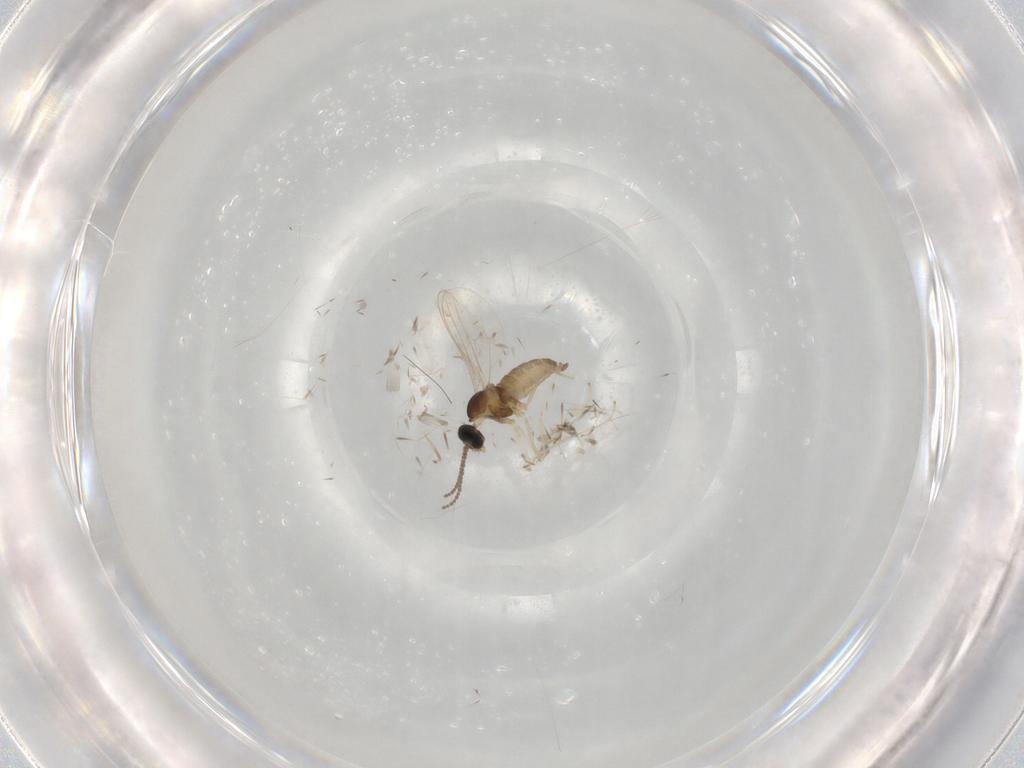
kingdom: Animalia
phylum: Arthropoda
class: Insecta
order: Diptera
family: Cecidomyiidae
